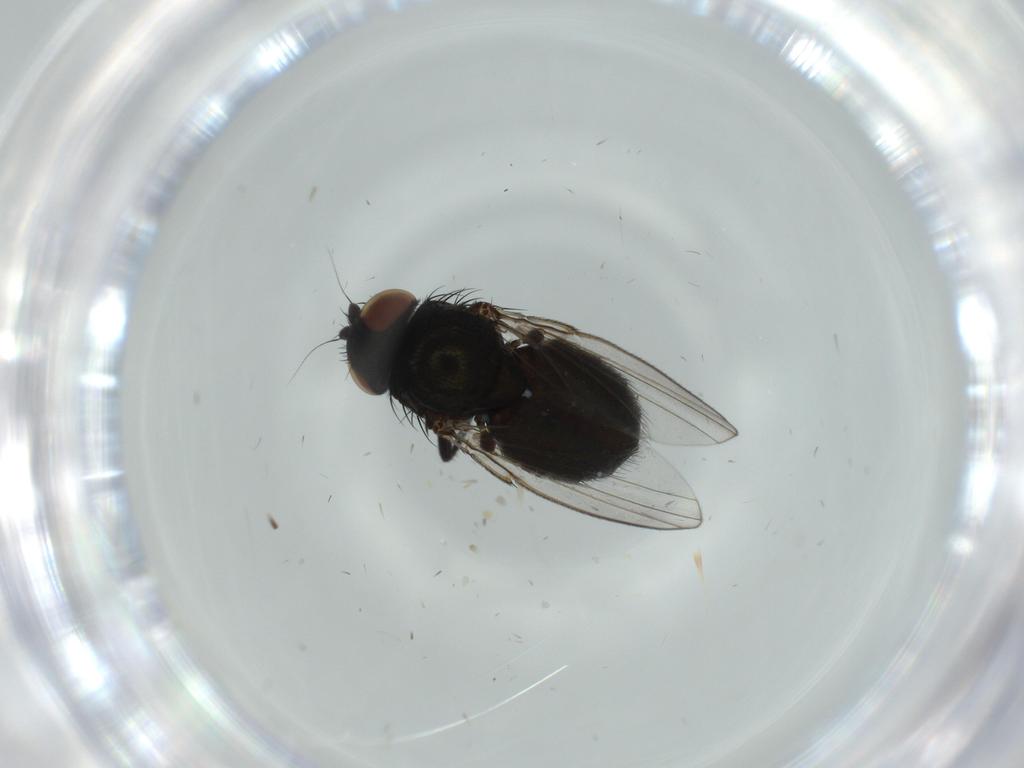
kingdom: Animalia
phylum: Arthropoda
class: Insecta
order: Diptera
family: Milichiidae
